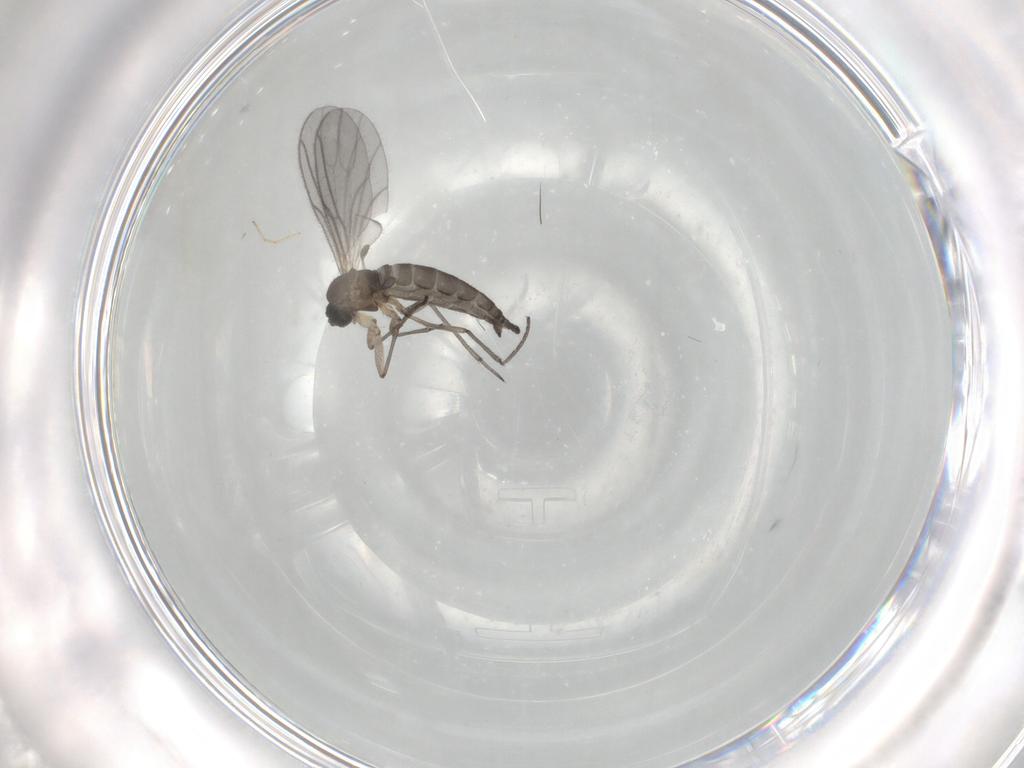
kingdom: Animalia
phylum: Arthropoda
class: Insecta
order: Diptera
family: Sciaridae
